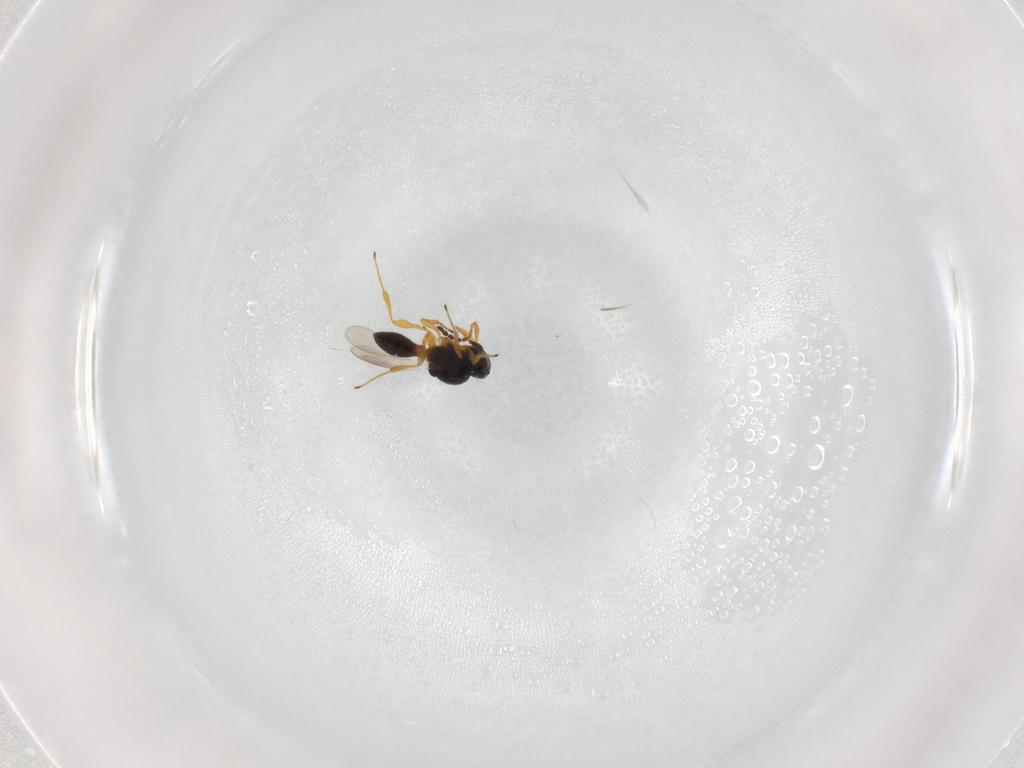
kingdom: Animalia
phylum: Arthropoda
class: Insecta
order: Hymenoptera
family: Platygastridae
